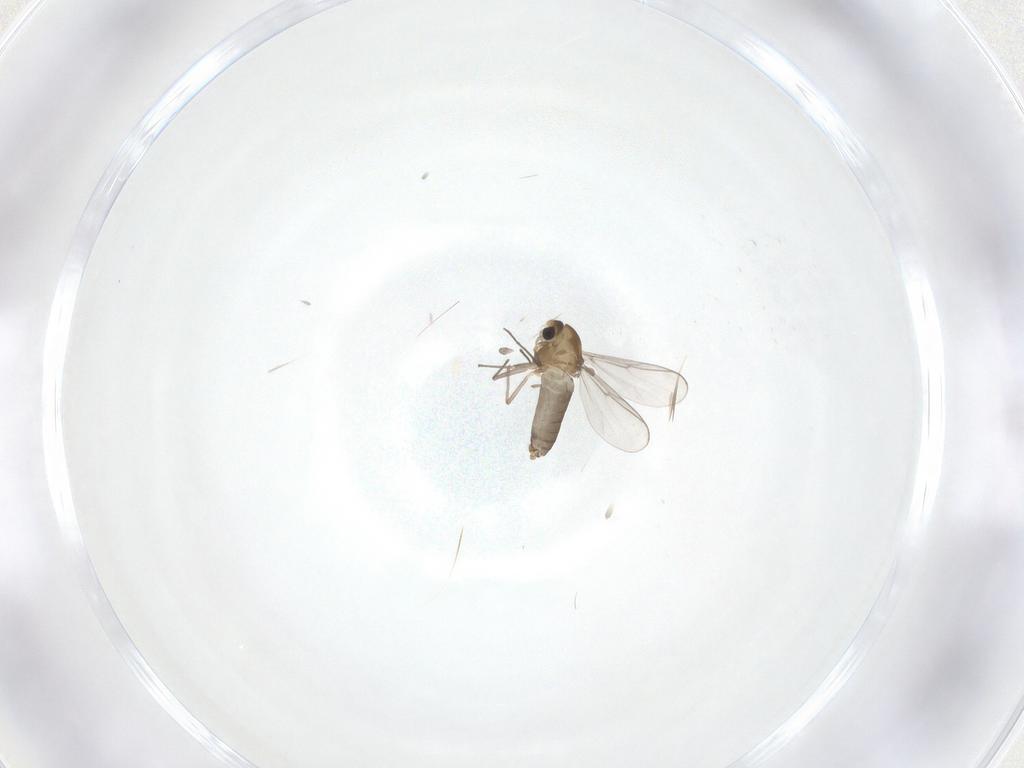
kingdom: Animalia
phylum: Arthropoda
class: Insecta
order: Diptera
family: Chironomidae
